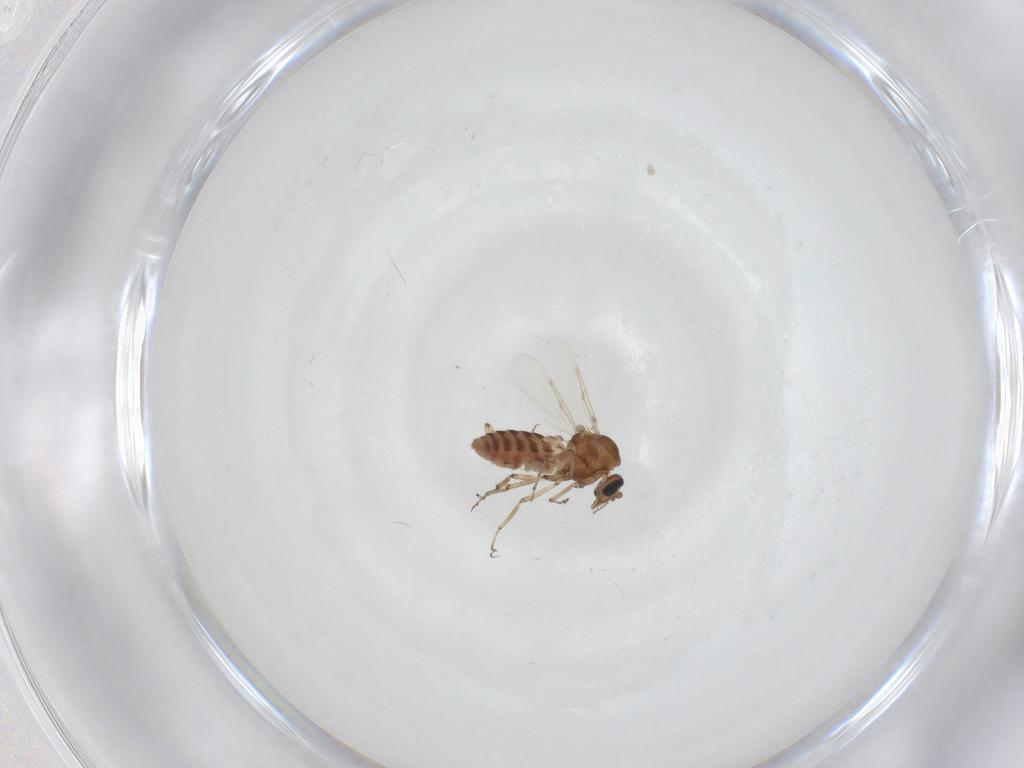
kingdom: Animalia
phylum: Arthropoda
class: Insecta
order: Diptera
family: Ceratopogonidae
